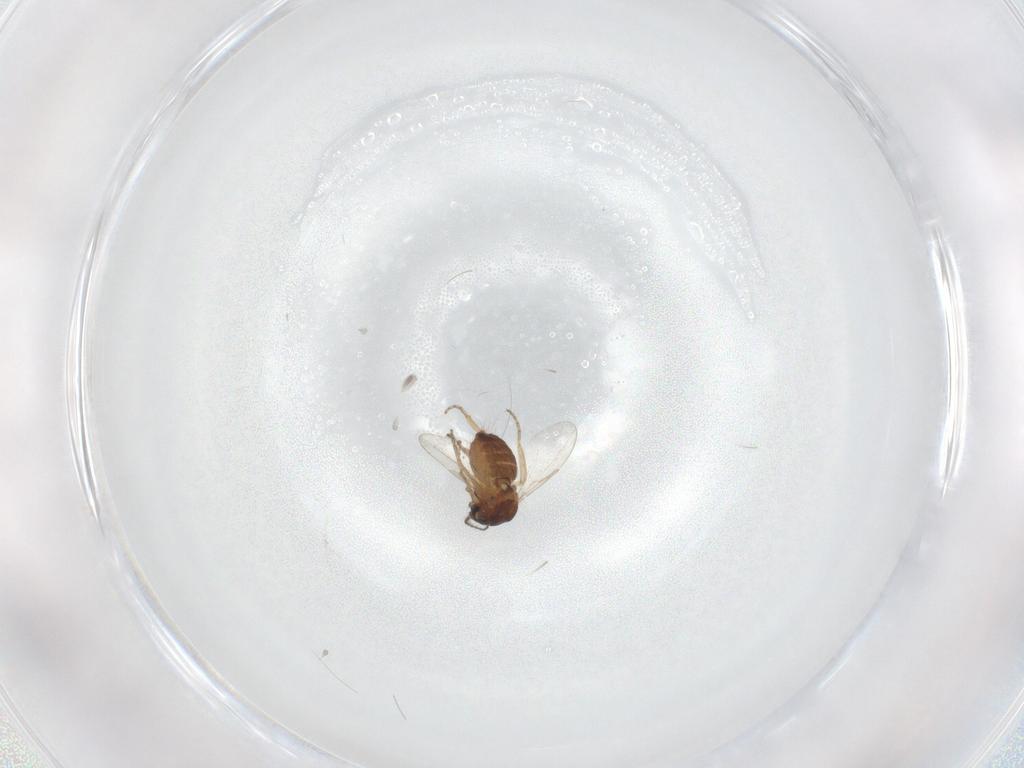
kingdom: Animalia
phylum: Arthropoda
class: Insecta
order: Diptera
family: Ceratopogonidae
